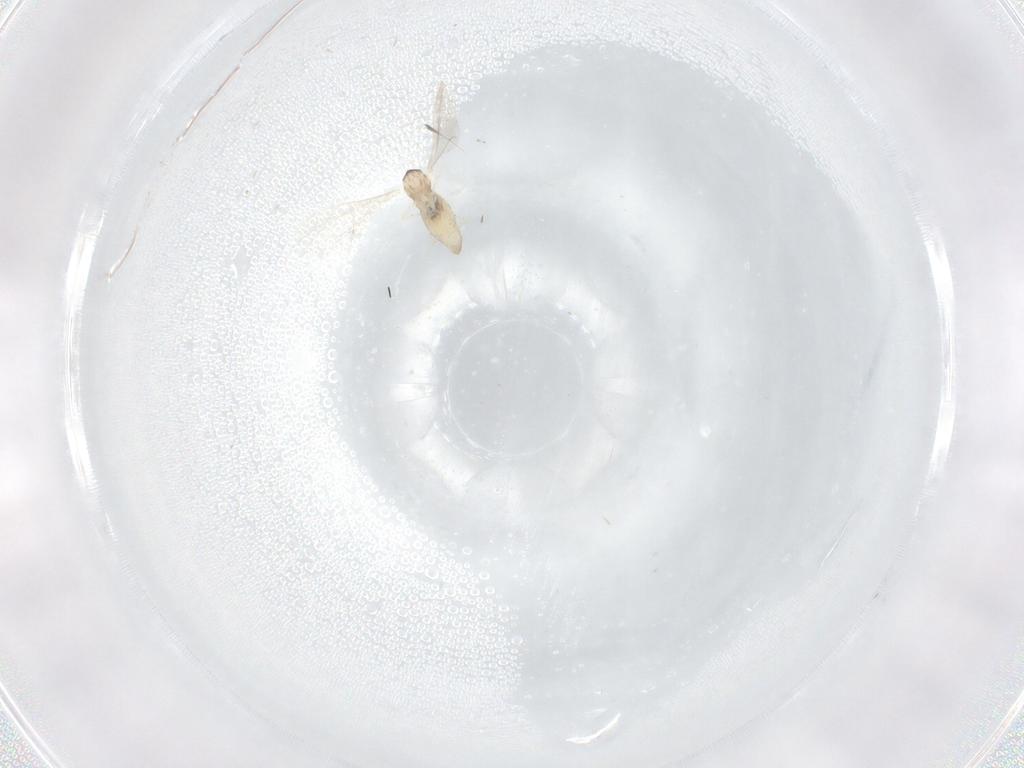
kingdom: Animalia
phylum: Arthropoda
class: Insecta
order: Diptera
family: Cecidomyiidae
